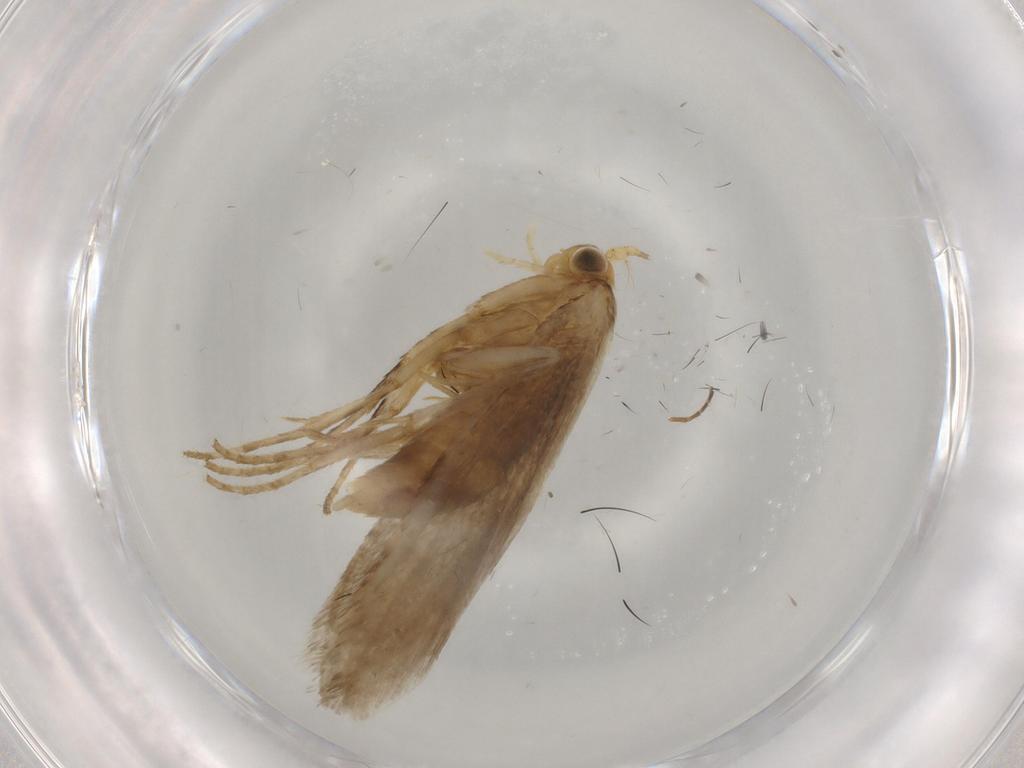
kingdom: Animalia
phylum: Arthropoda
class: Insecta
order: Lepidoptera
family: Argyresthiidae
